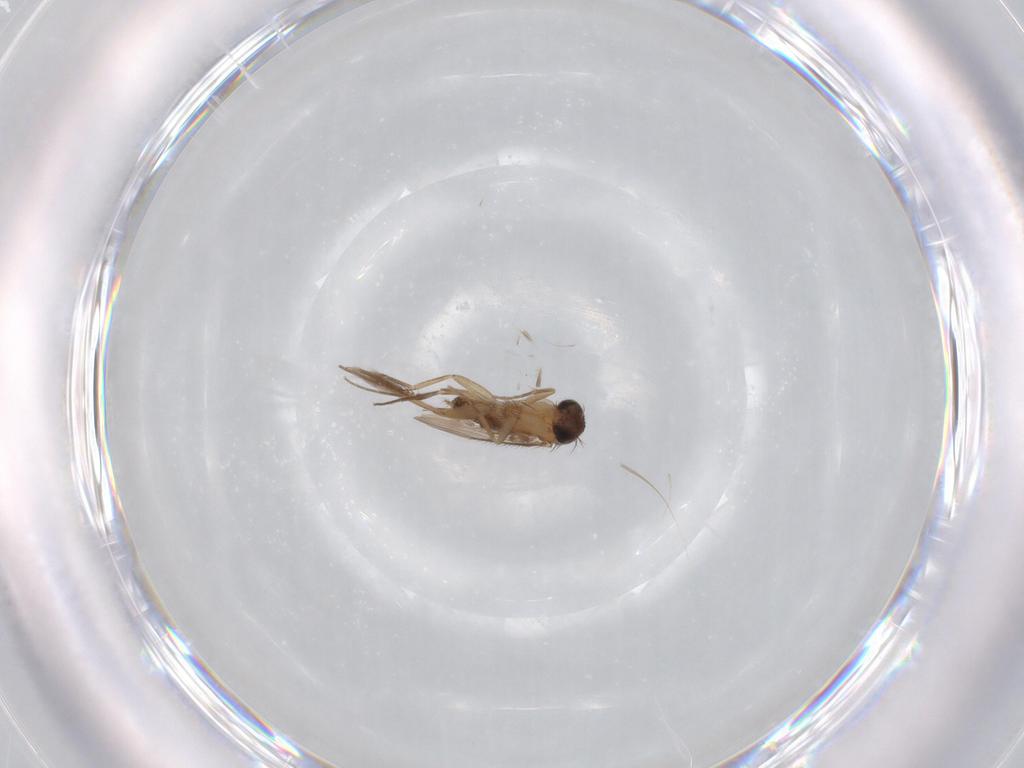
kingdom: Animalia
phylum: Arthropoda
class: Insecta
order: Diptera
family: Phoridae
